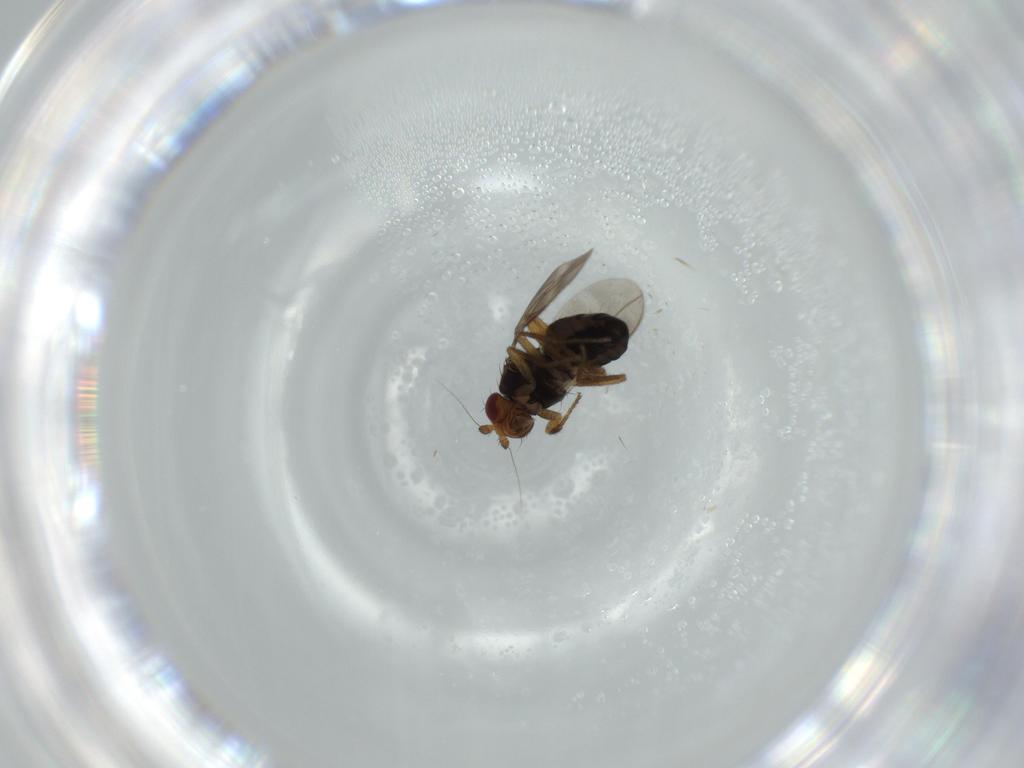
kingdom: Animalia
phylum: Arthropoda
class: Insecta
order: Diptera
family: Sphaeroceridae
